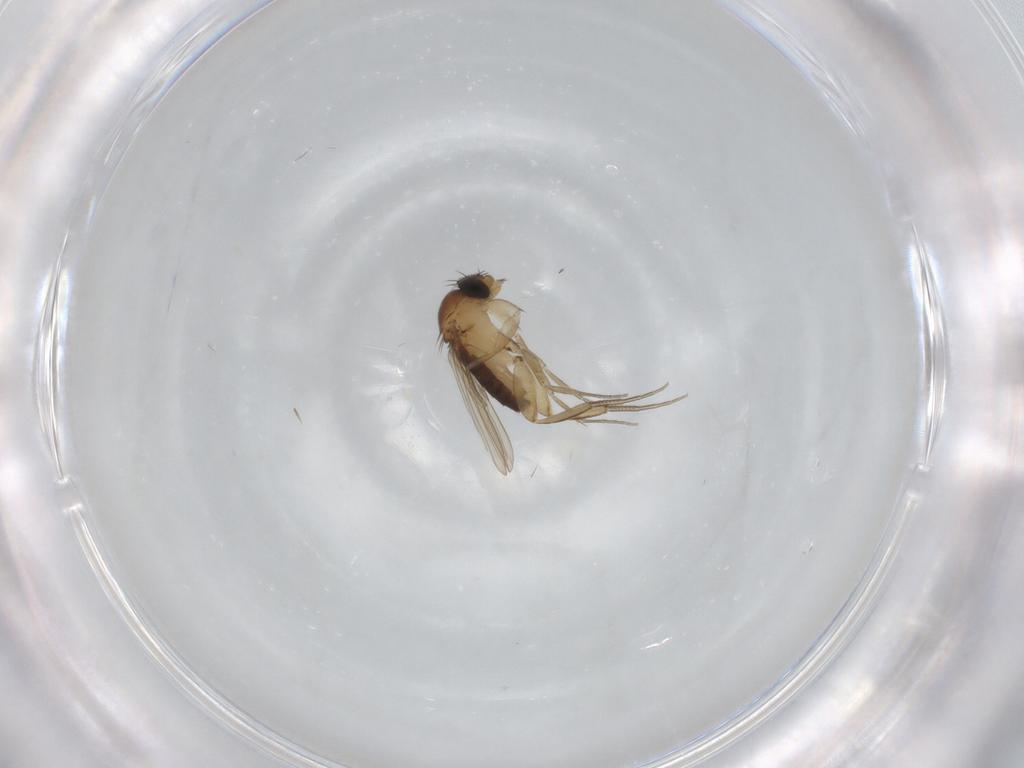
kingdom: Animalia
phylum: Arthropoda
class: Insecta
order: Diptera
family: Phoridae
